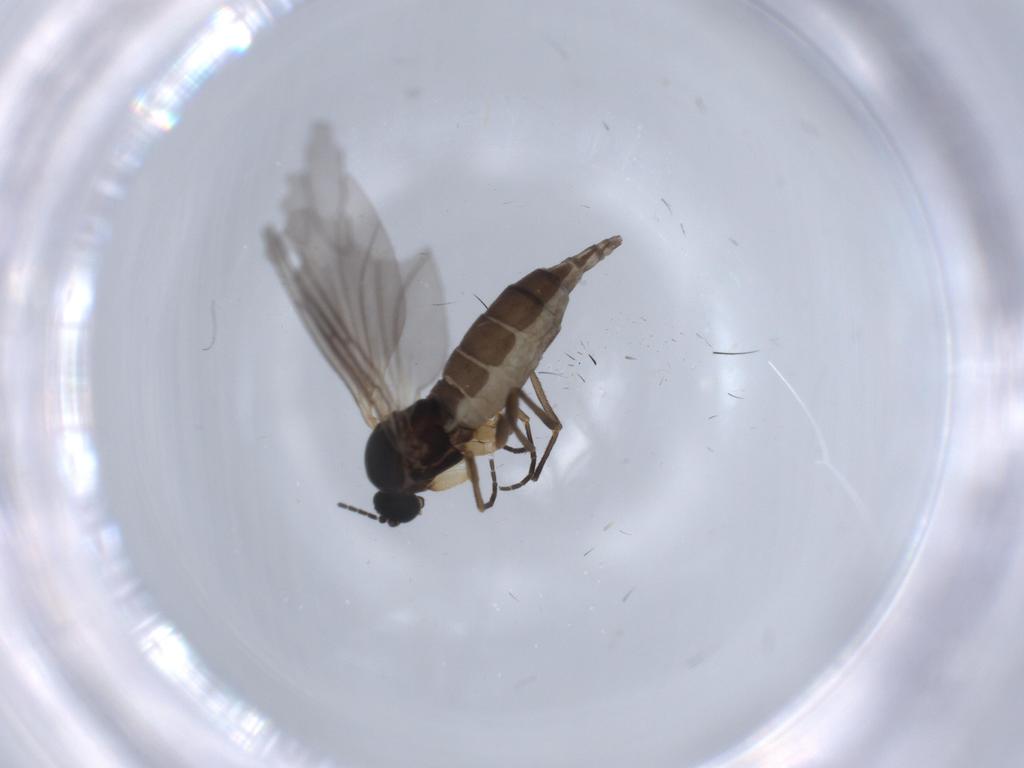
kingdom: Animalia
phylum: Arthropoda
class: Insecta
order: Diptera
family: Sciaridae
